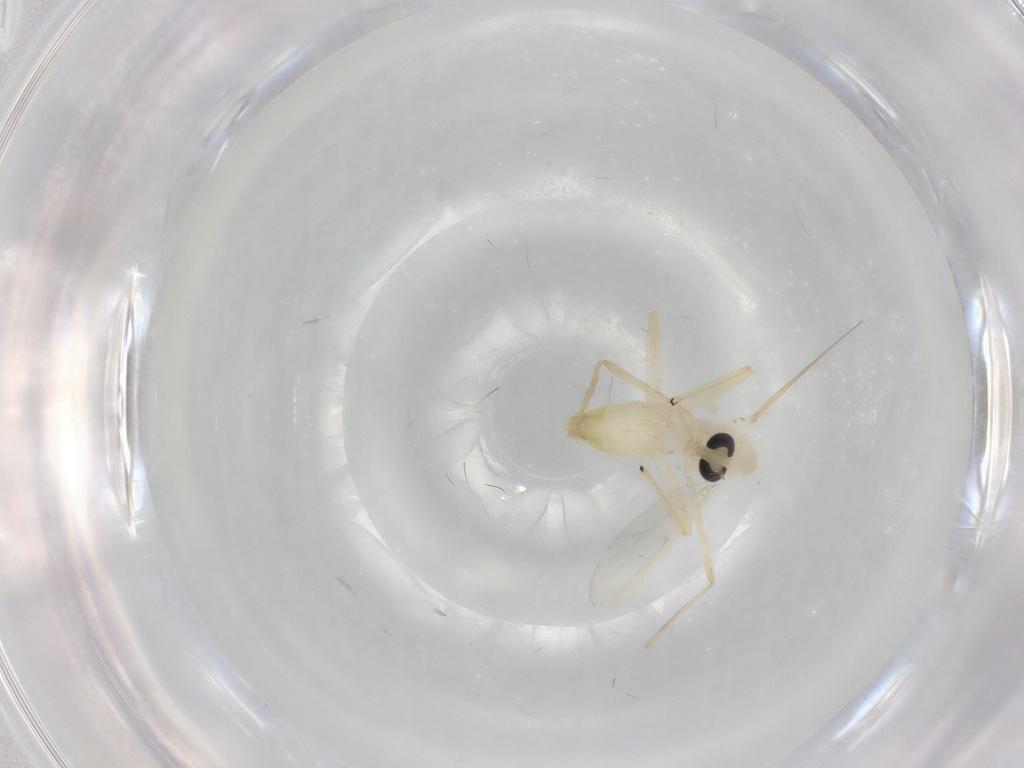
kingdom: Animalia
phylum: Arthropoda
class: Insecta
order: Diptera
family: Chironomidae
